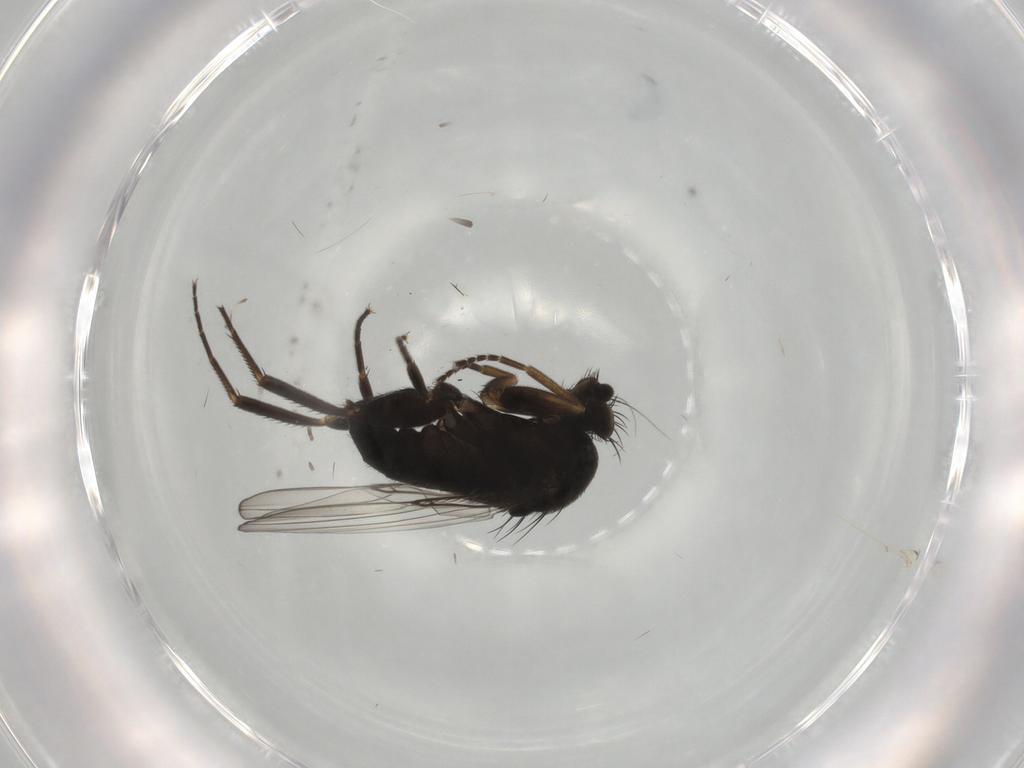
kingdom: Animalia
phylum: Arthropoda
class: Insecta
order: Diptera
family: Phoridae
